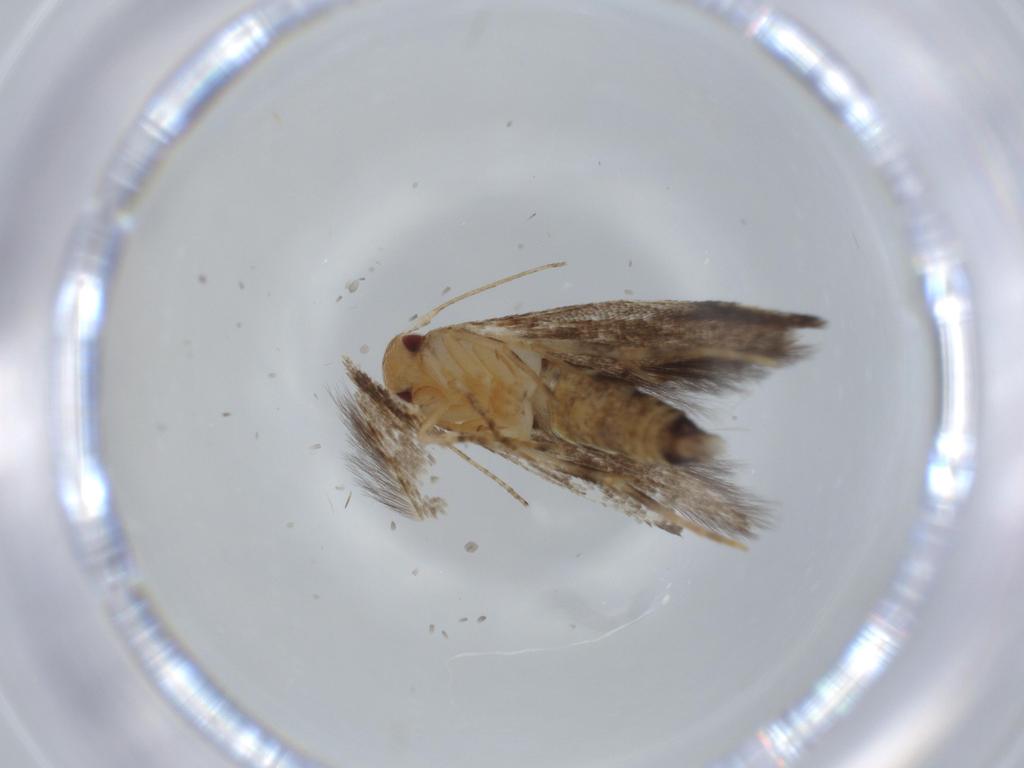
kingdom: Animalia
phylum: Arthropoda
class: Insecta
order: Lepidoptera
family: Momphidae
